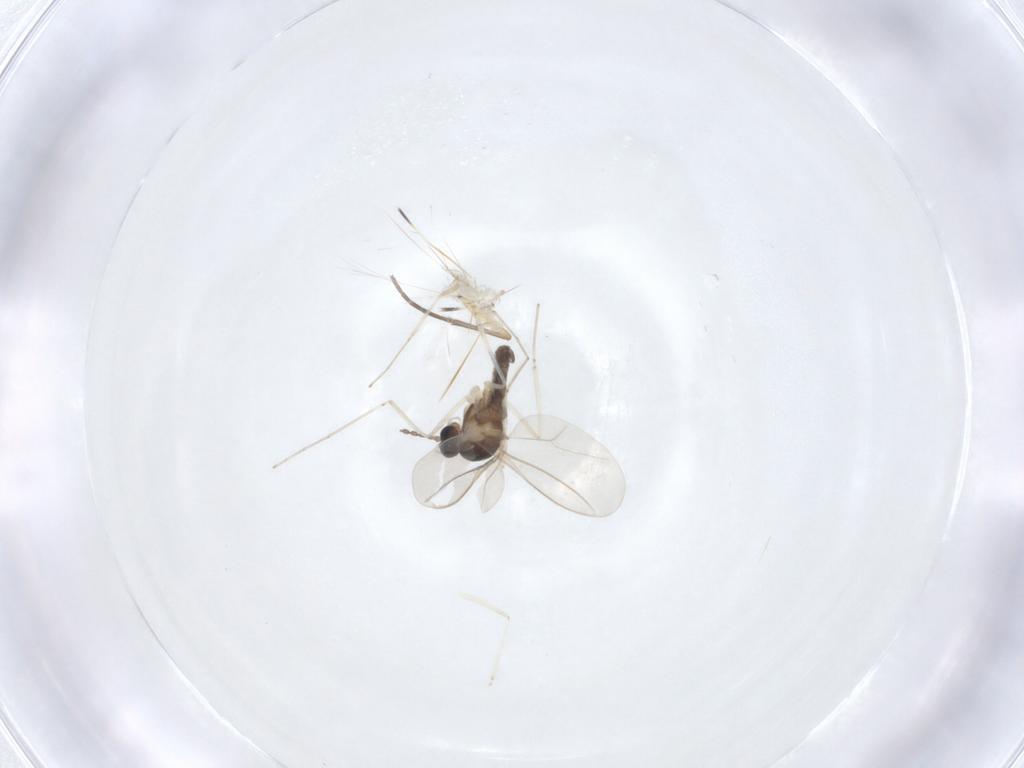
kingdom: Animalia
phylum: Arthropoda
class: Insecta
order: Diptera
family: Cecidomyiidae
